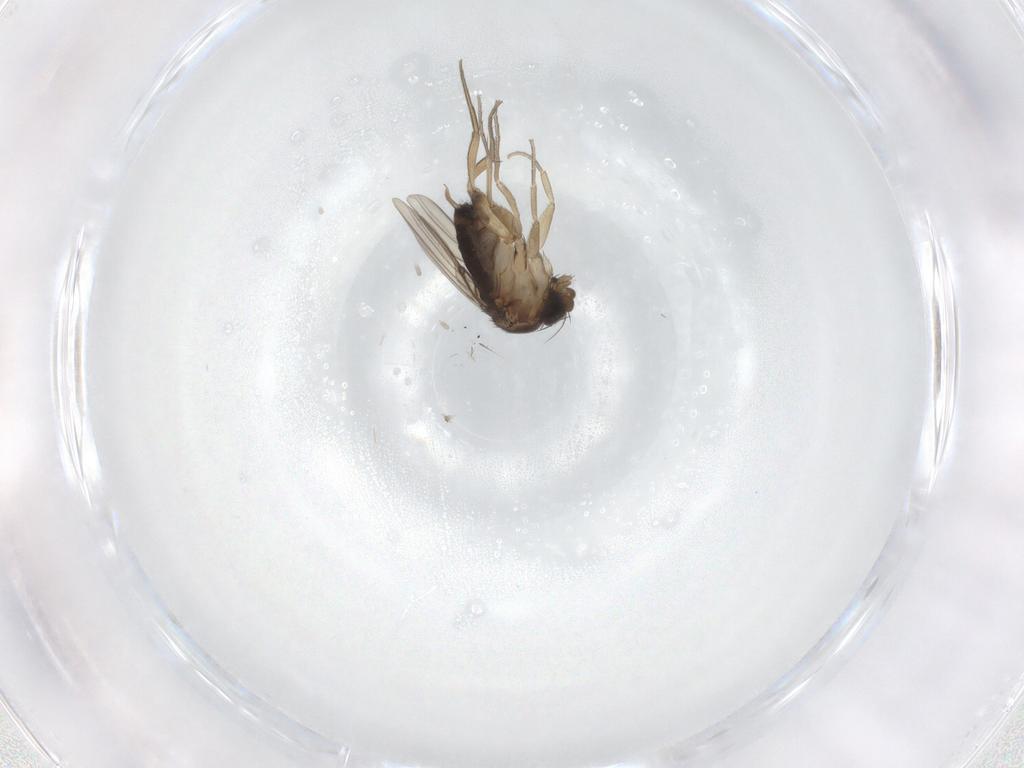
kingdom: Animalia
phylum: Arthropoda
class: Insecta
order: Diptera
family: Phoridae
